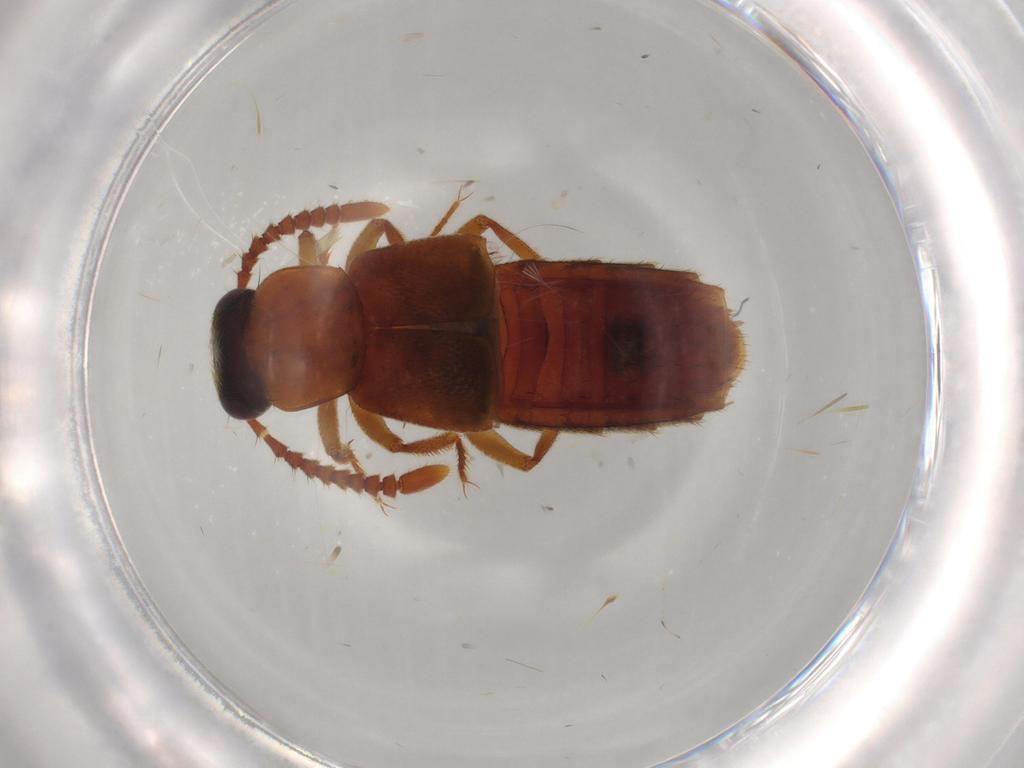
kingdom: Animalia
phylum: Arthropoda
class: Insecta
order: Coleoptera
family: Staphylinidae
